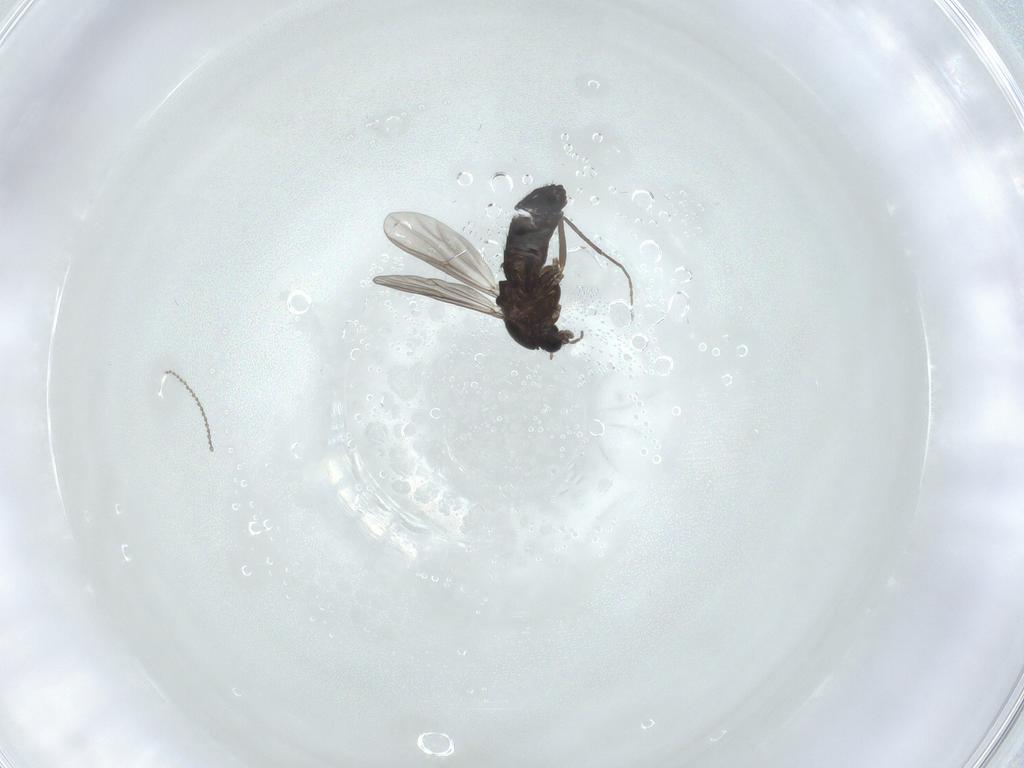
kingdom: Animalia
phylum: Arthropoda
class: Insecta
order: Diptera
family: Chironomidae
